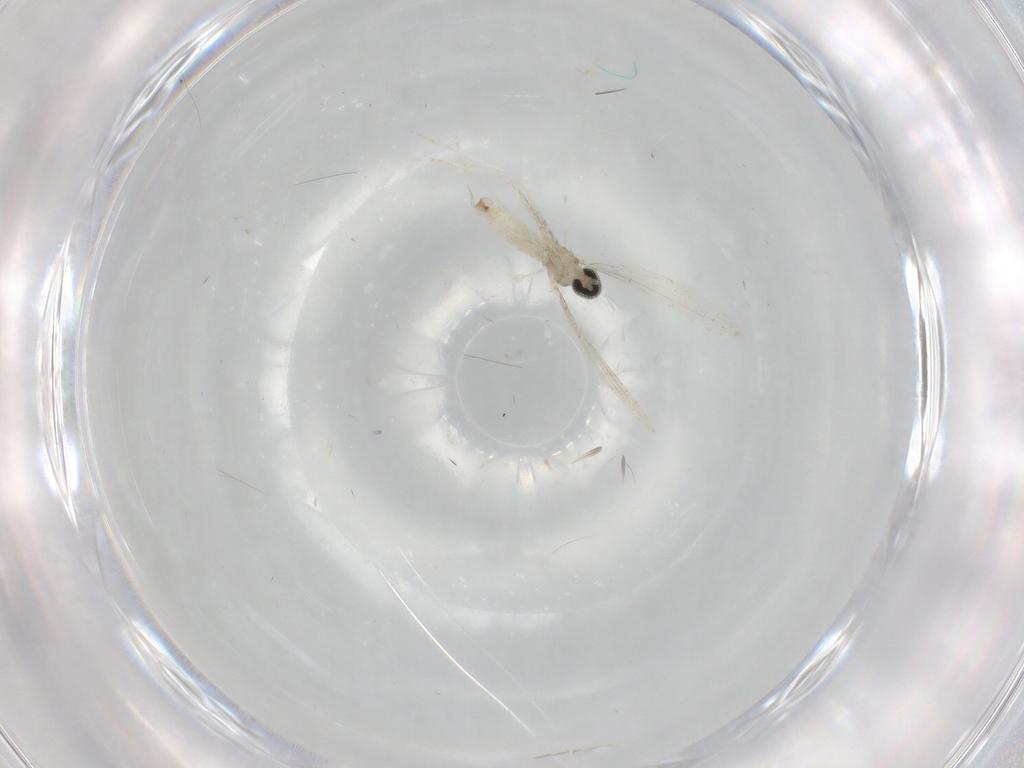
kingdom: Animalia
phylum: Arthropoda
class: Insecta
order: Diptera
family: Cecidomyiidae
